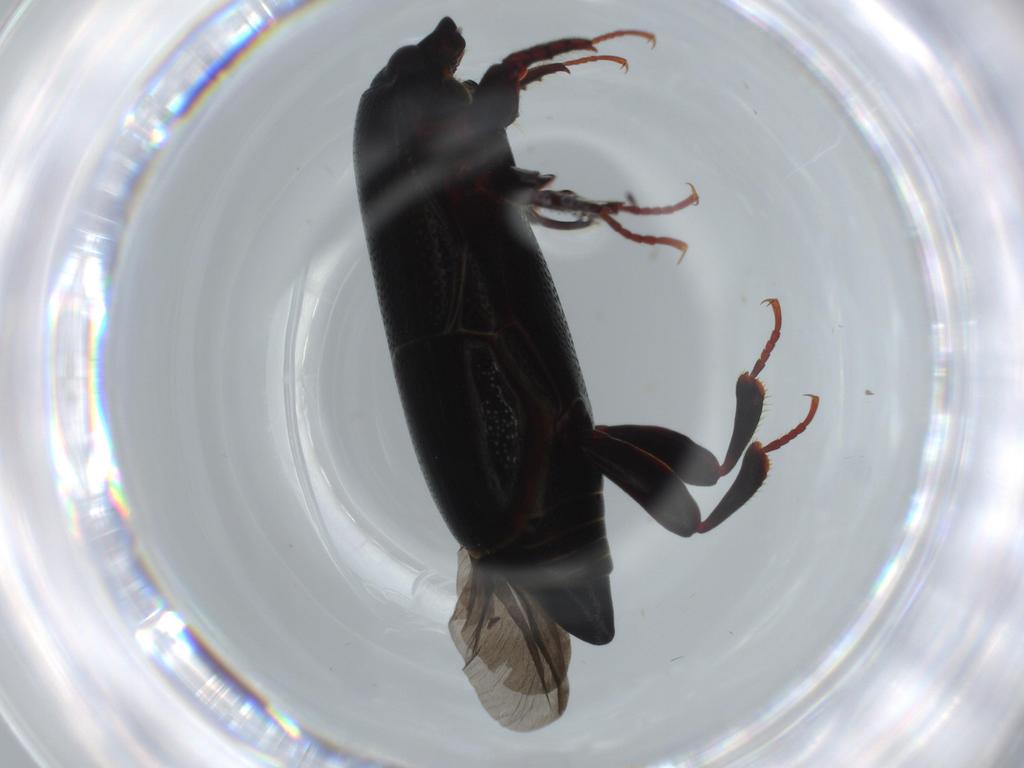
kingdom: Animalia
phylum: Arthropoda
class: Insecta
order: Coleoptera
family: Histeridae
